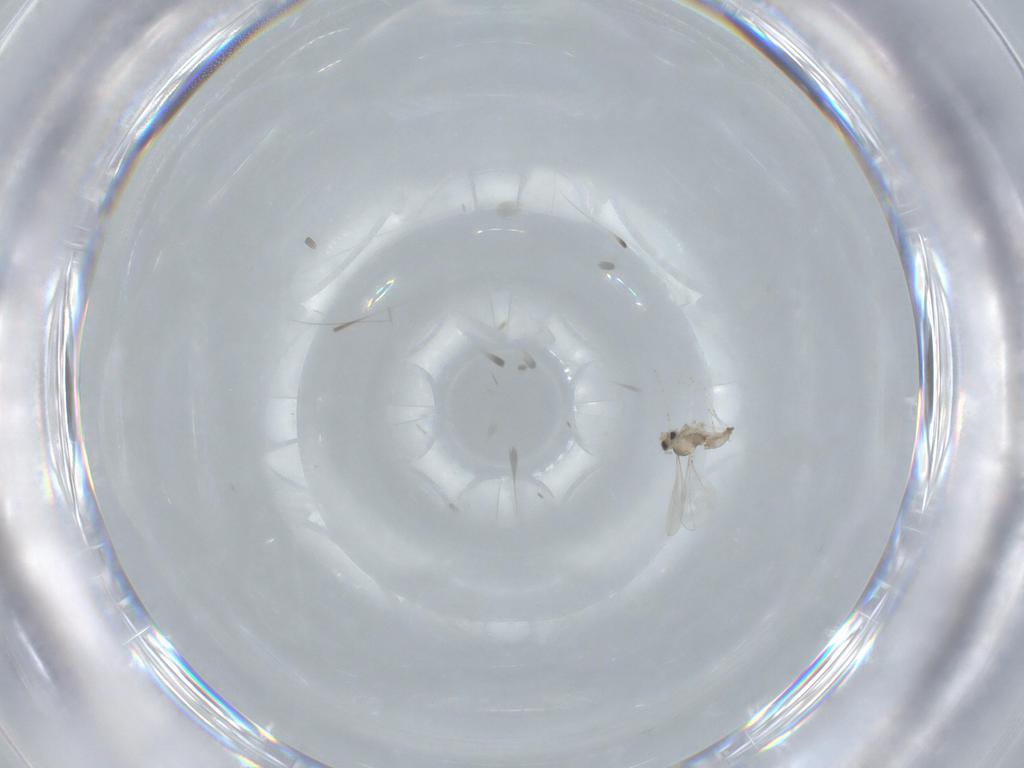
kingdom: Animalia
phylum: Arthropoda
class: Insecta
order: Diptera
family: Cecidomyiidae
